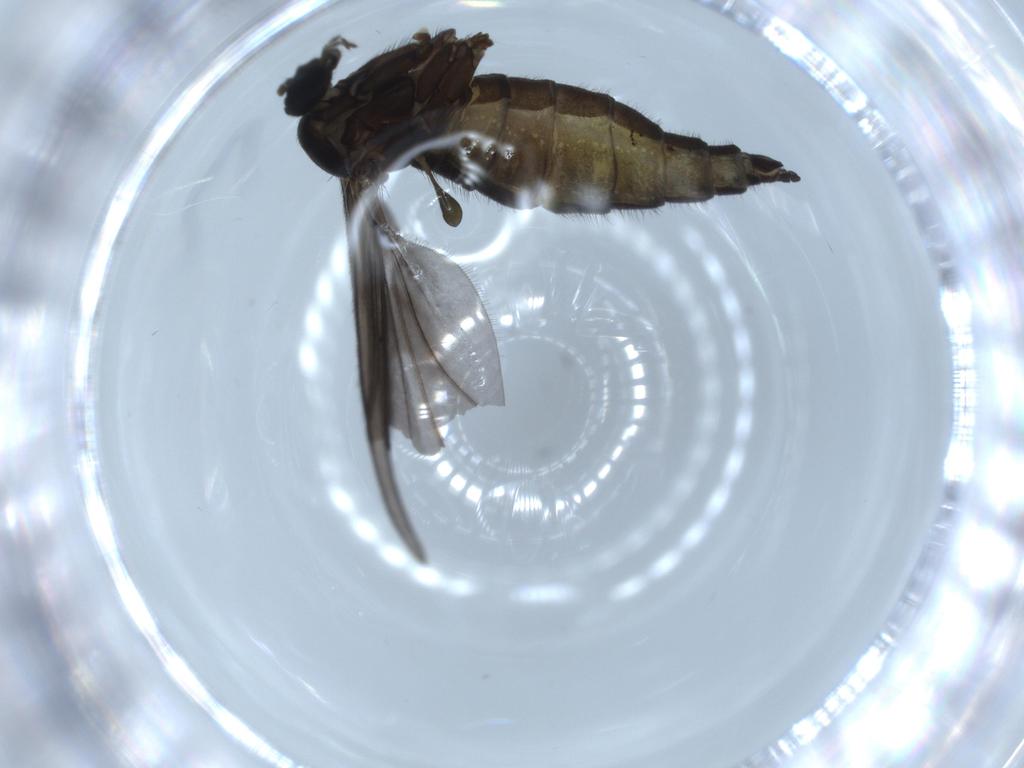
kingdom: Animalia
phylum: Arthropoda
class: Insecta
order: Diptera
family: Sciaridae
